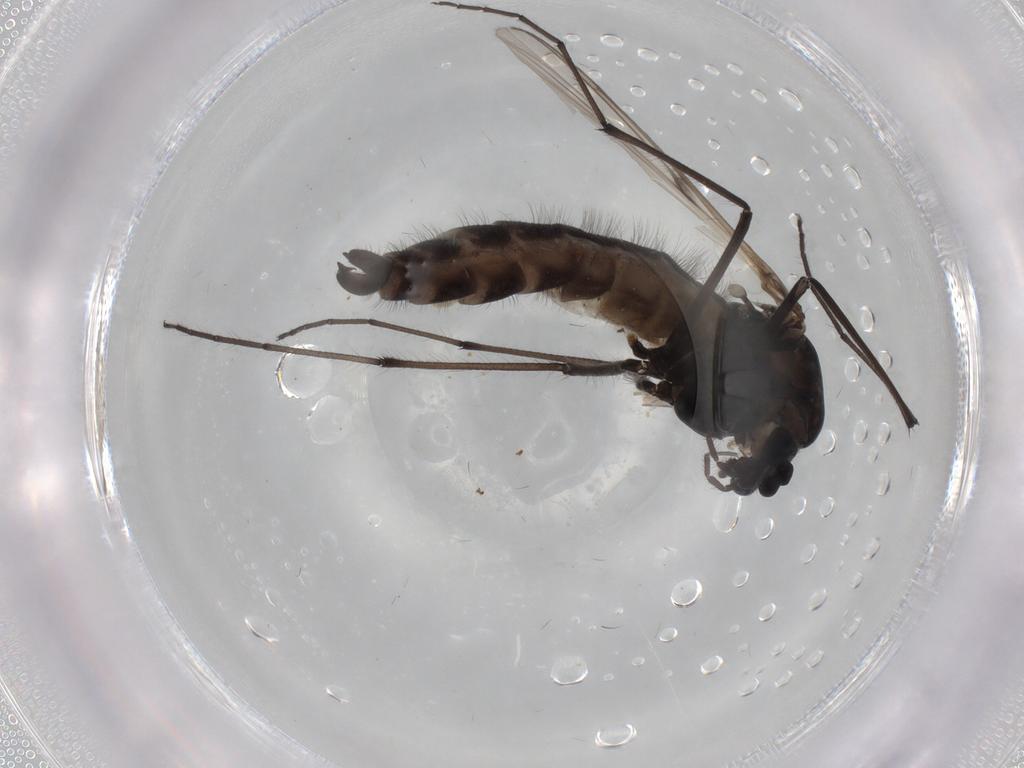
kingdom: Animalia
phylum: Arthropoda
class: Insecta
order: Diptera
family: Chironomidae
